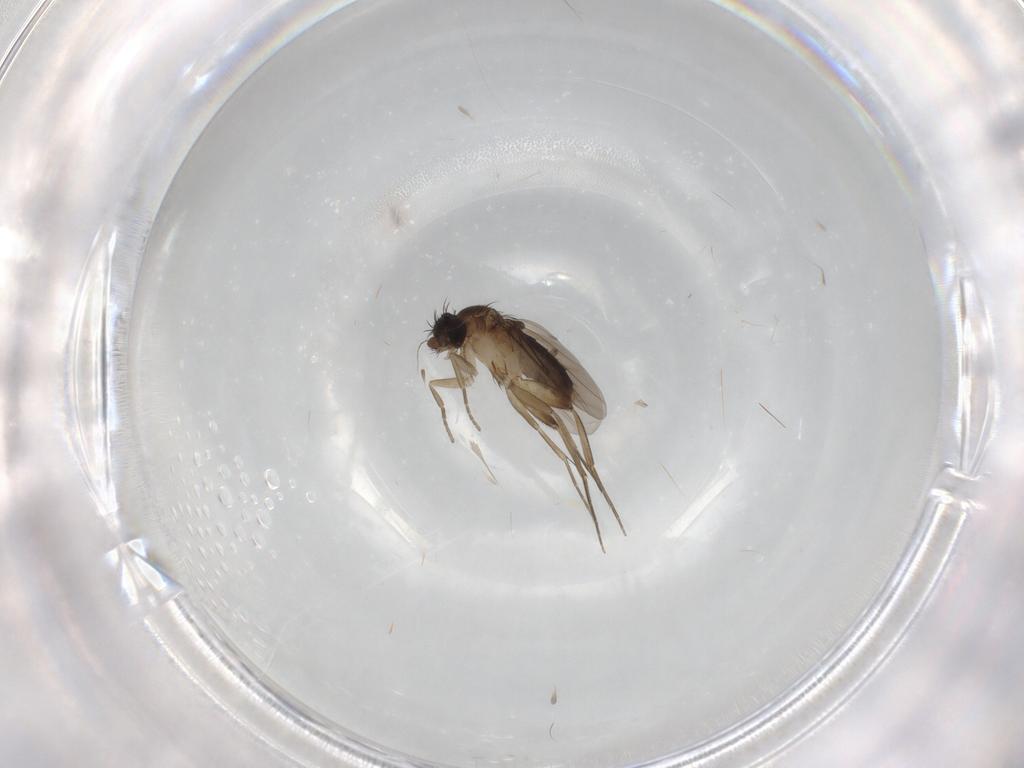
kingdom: Animalia
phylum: Arthropoda
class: Insecta
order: Diptera
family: Phoridae
